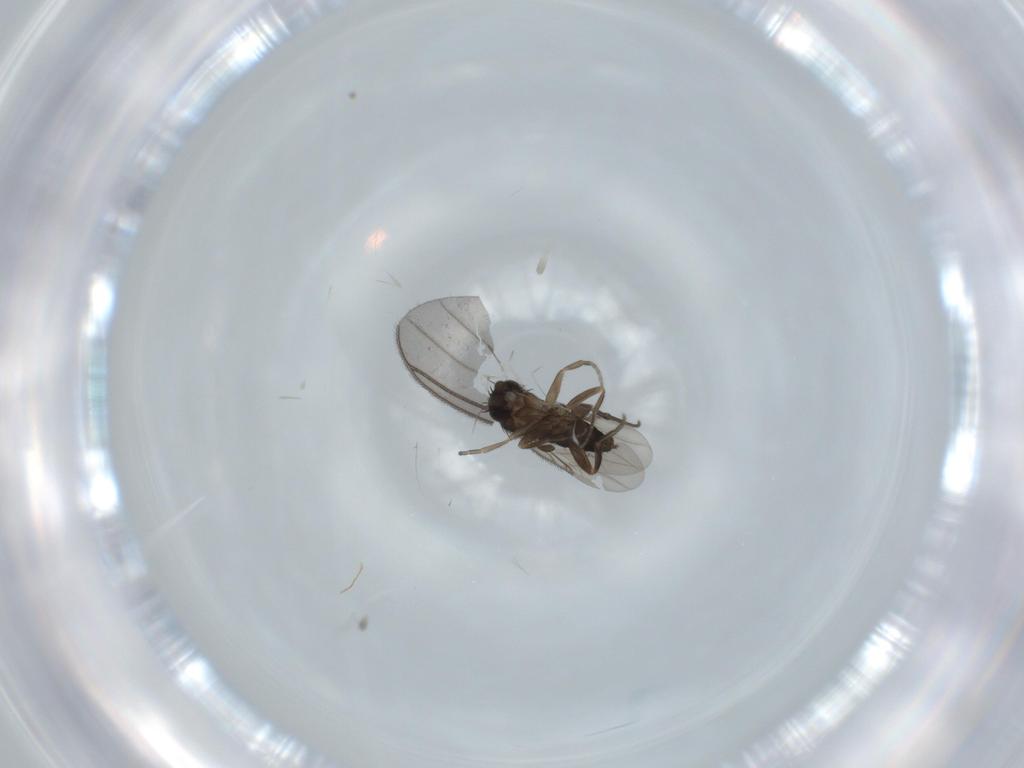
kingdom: Animalia
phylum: Arthropoda
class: Insecta
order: Diptera
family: Sciaridae
